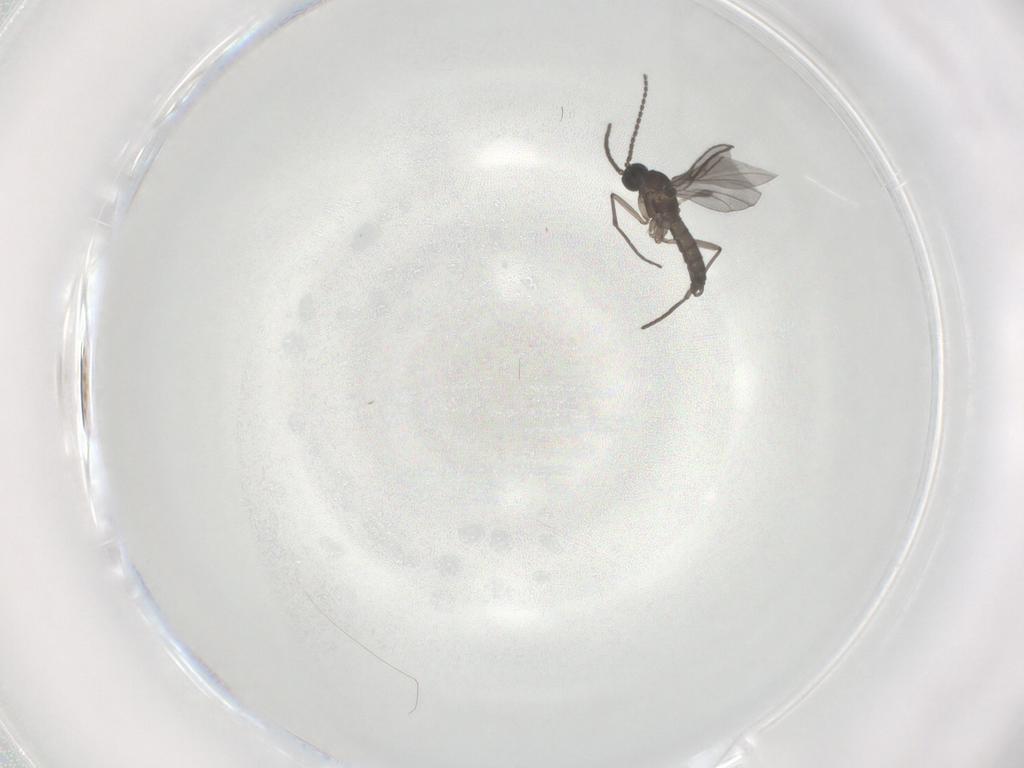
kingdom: Animalia
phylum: Arthropoda
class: Insecta
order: Diptera
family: Sciaridae
